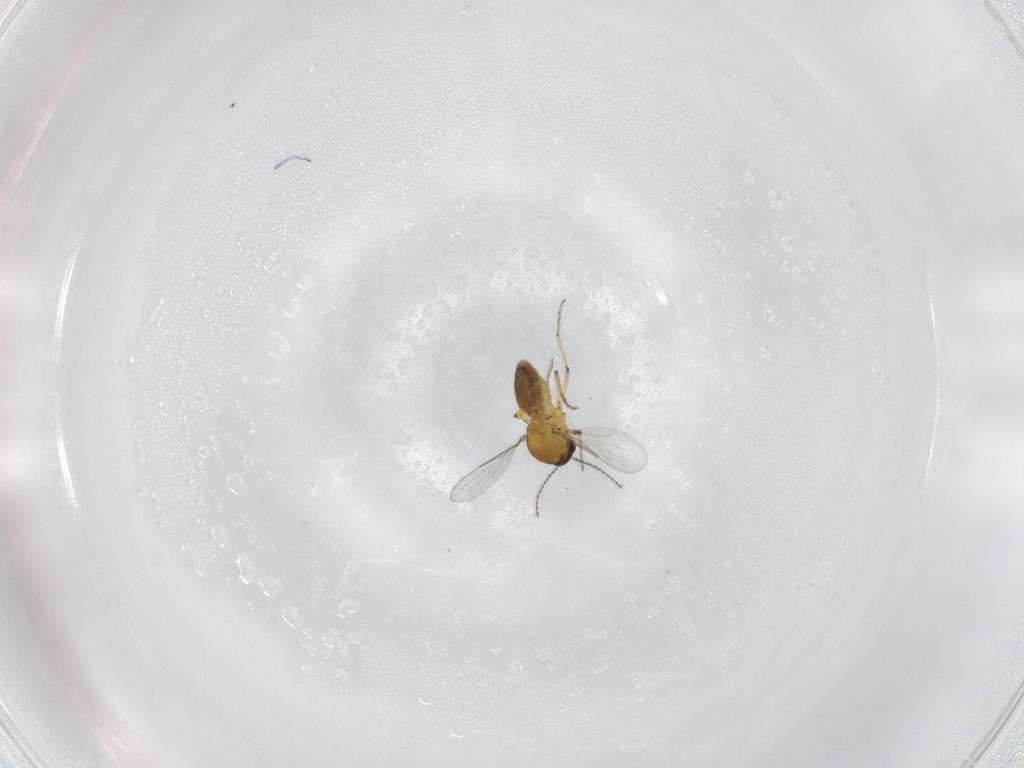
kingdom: Animalia
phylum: Arthropoda
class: Insecta
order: Diptera
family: Ceratopogonidae
